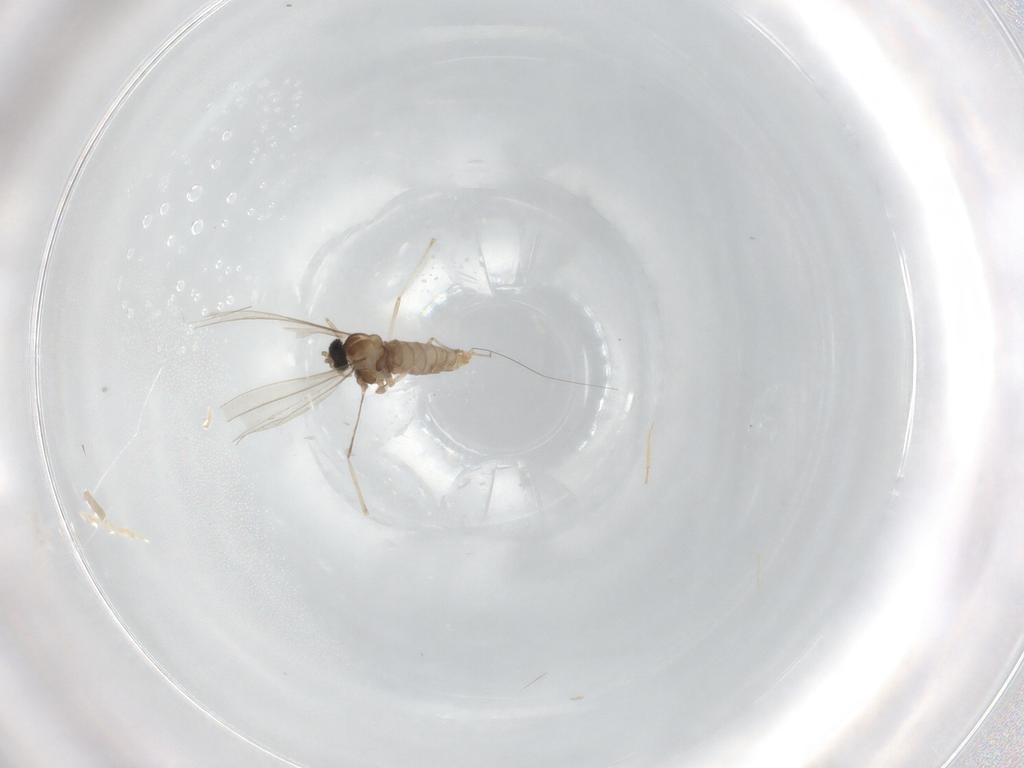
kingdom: Animalia
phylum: Arthropoda
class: Insecta
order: Diptera
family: Cecidomyiidae
